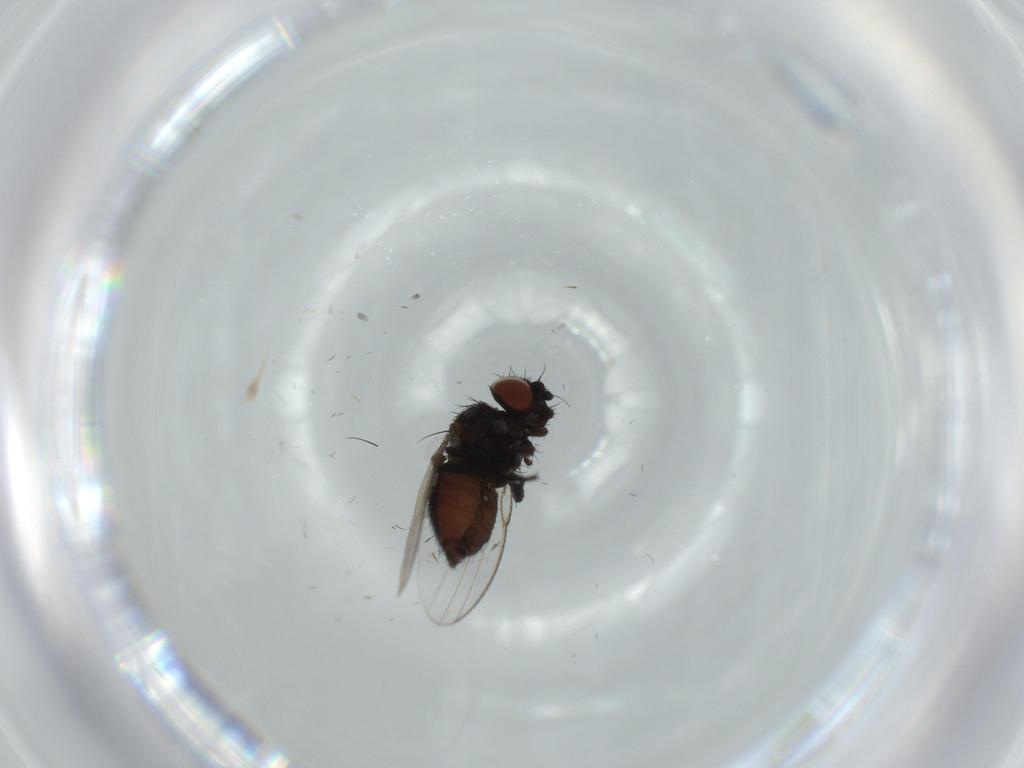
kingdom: Animalia
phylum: Arthropoda
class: Insecta
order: Diptera
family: Milichiidae
